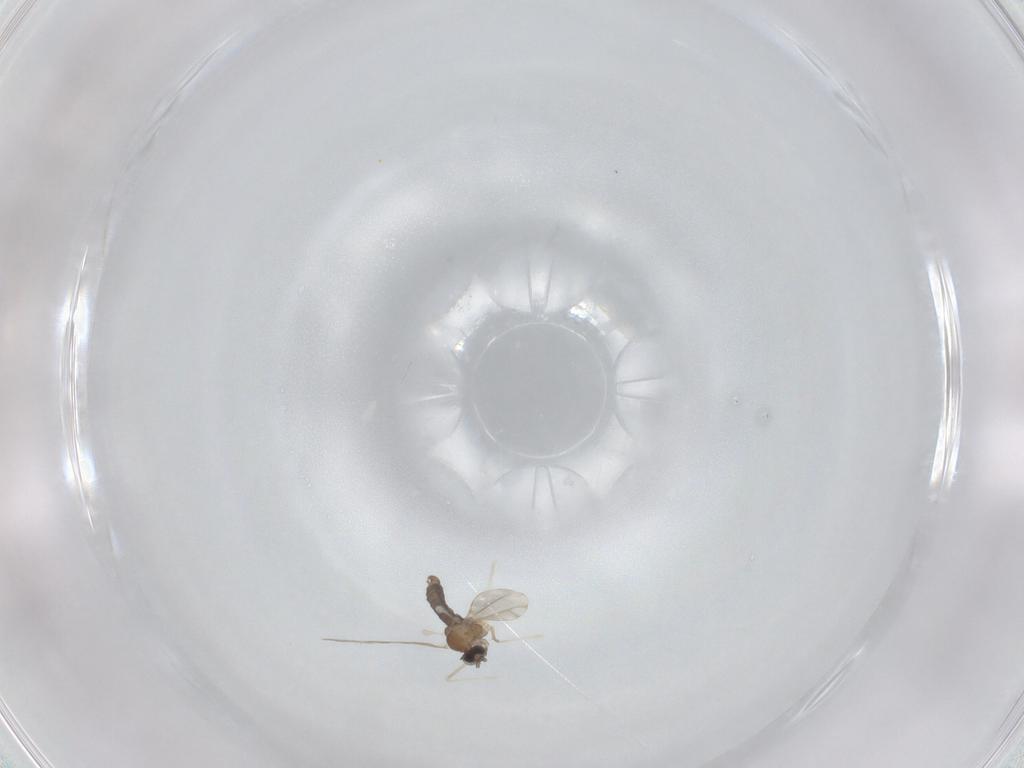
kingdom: Animalia
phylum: Arthropoda
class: Insecta
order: Diptera
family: Cecidomyiidae
